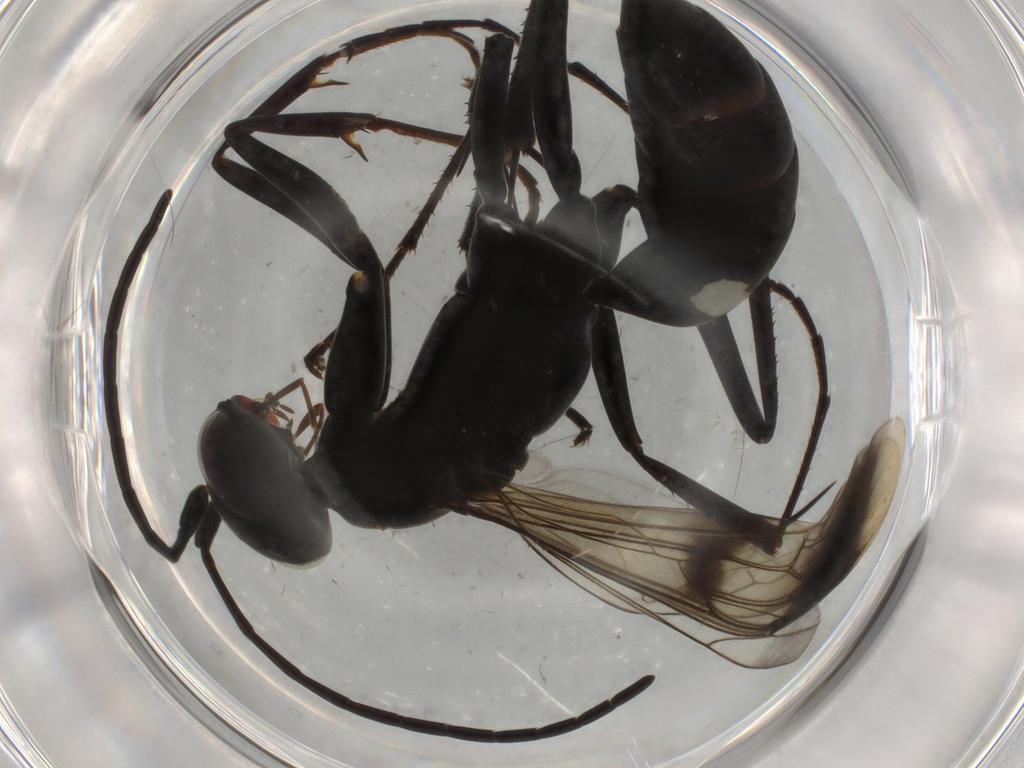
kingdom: Animalia
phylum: Arthropoda
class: Insecta
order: Hymenoptera
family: Pompilidae
